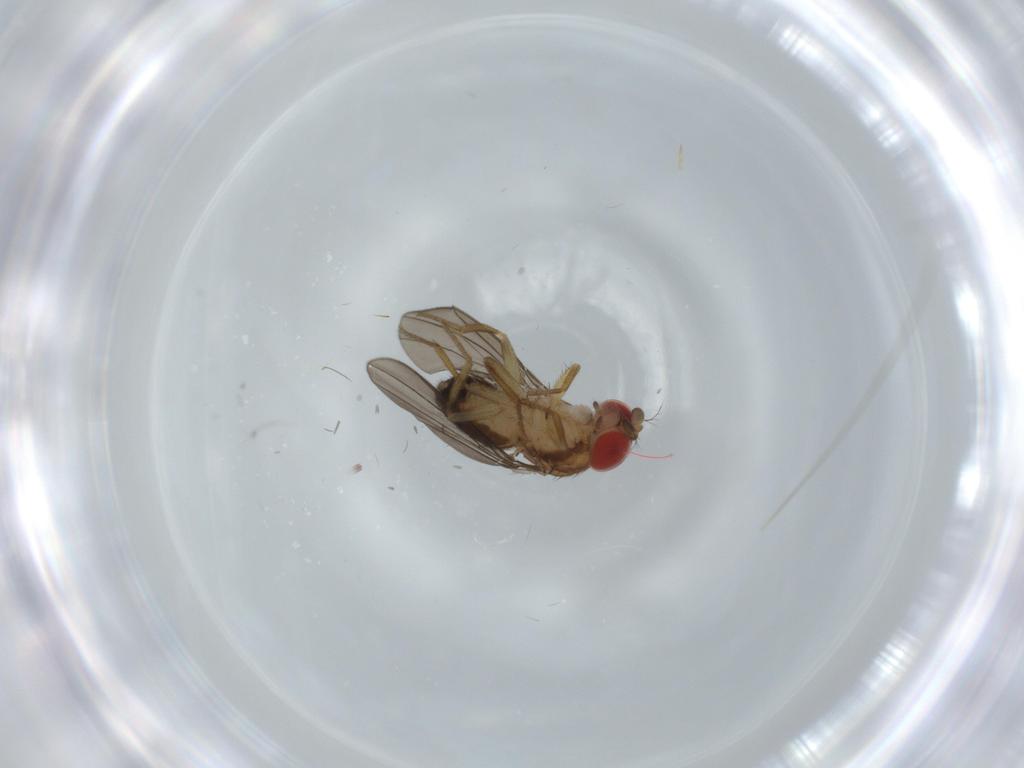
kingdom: Animalia
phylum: Arthropoda
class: Insecta
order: Diptera
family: Drosophilidae
